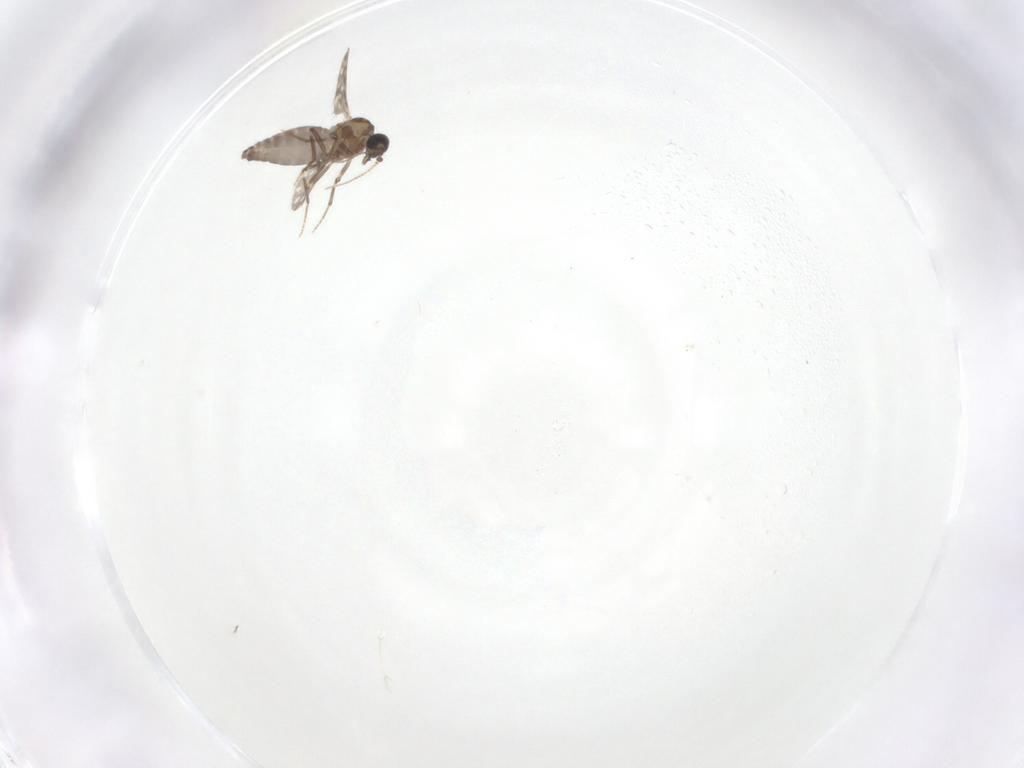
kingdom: Animalia
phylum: Arthropoda
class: Insecta
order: Diptera
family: Ceratopogonidae
